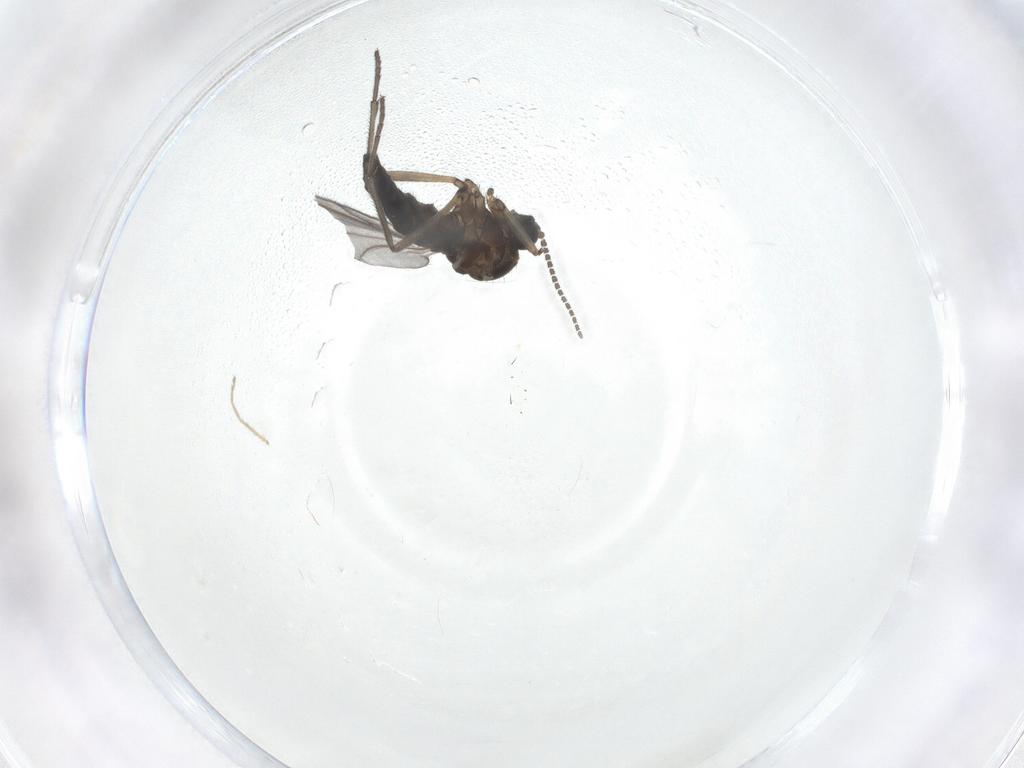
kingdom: Animalia
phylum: Arthropoda
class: Insecta
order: Diptera
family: Sciaridae
